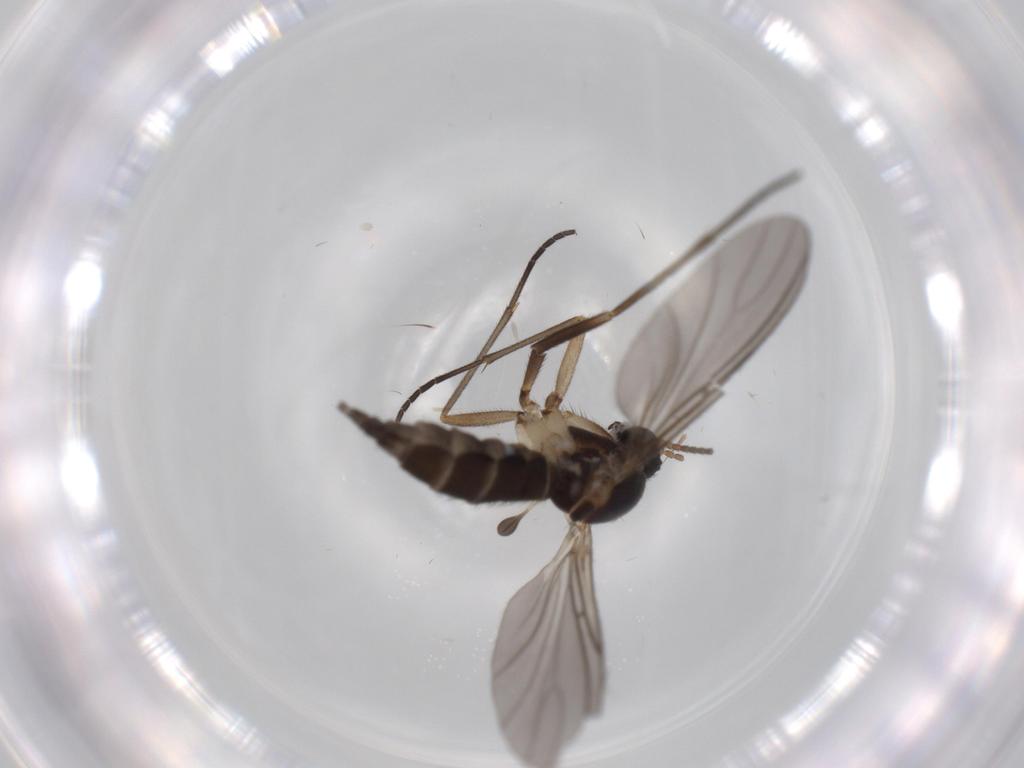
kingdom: Animalia
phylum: Arthropoda
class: Insecta
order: Diptera
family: Sciaridae
